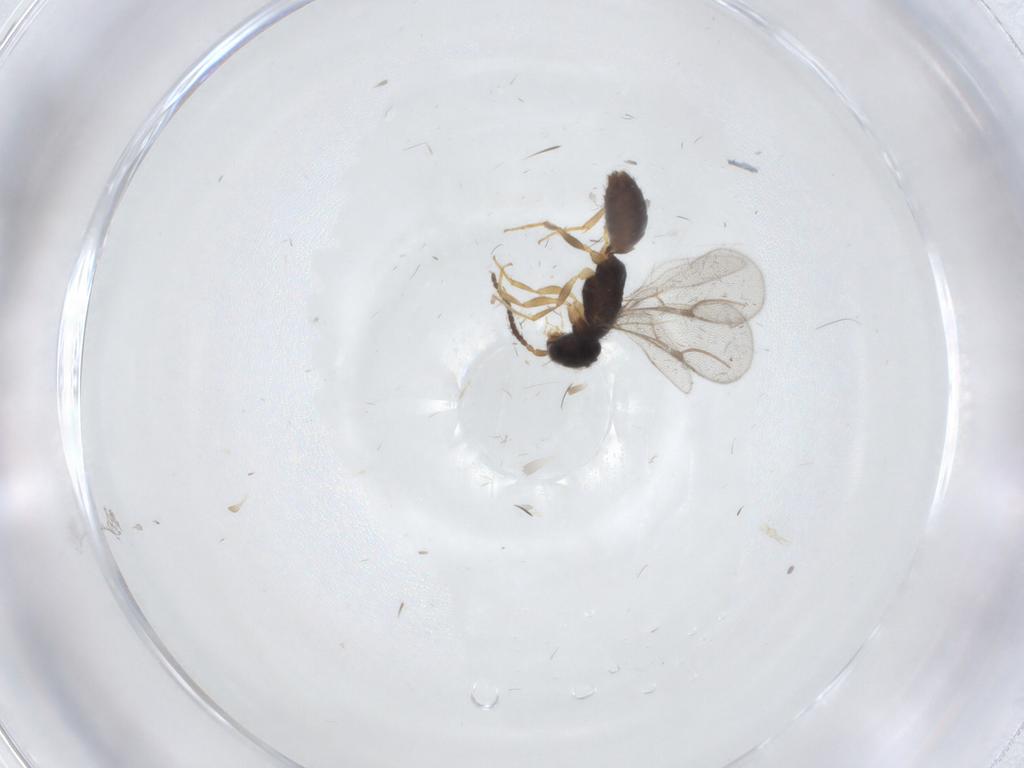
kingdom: Animalia
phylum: Arthropoda
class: Insecta
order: Hymenoptera
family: Bethylidae
